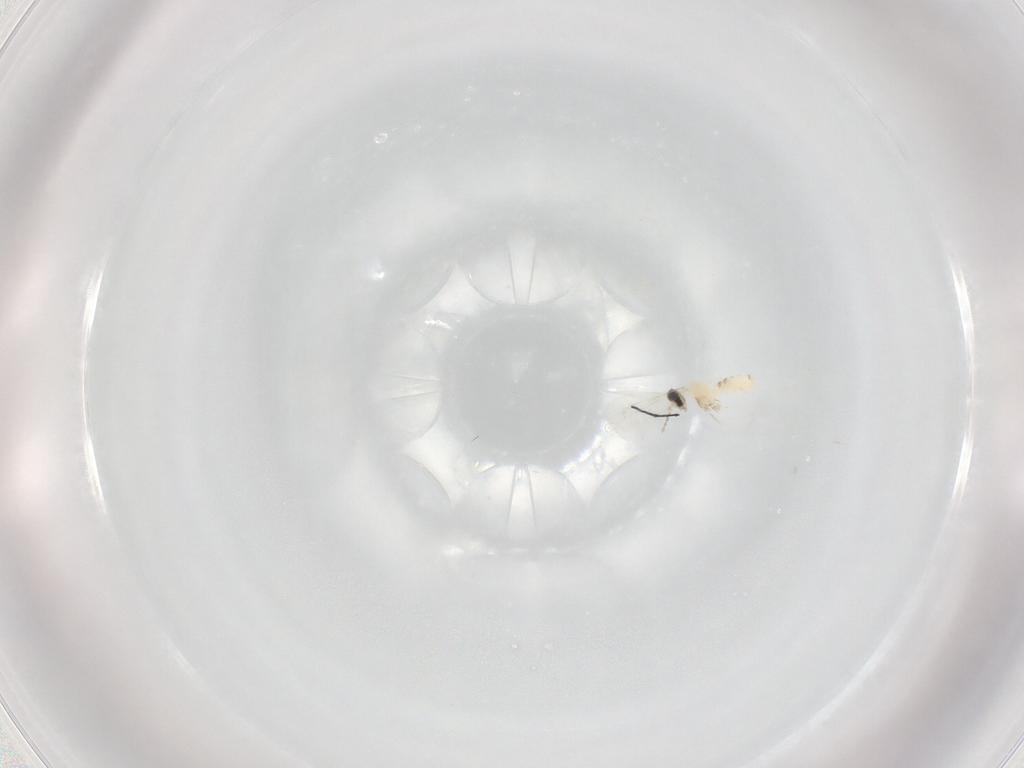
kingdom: Animalia
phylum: Arthropoda
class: Insecta
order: Diptera
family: Cecidomyiidae
